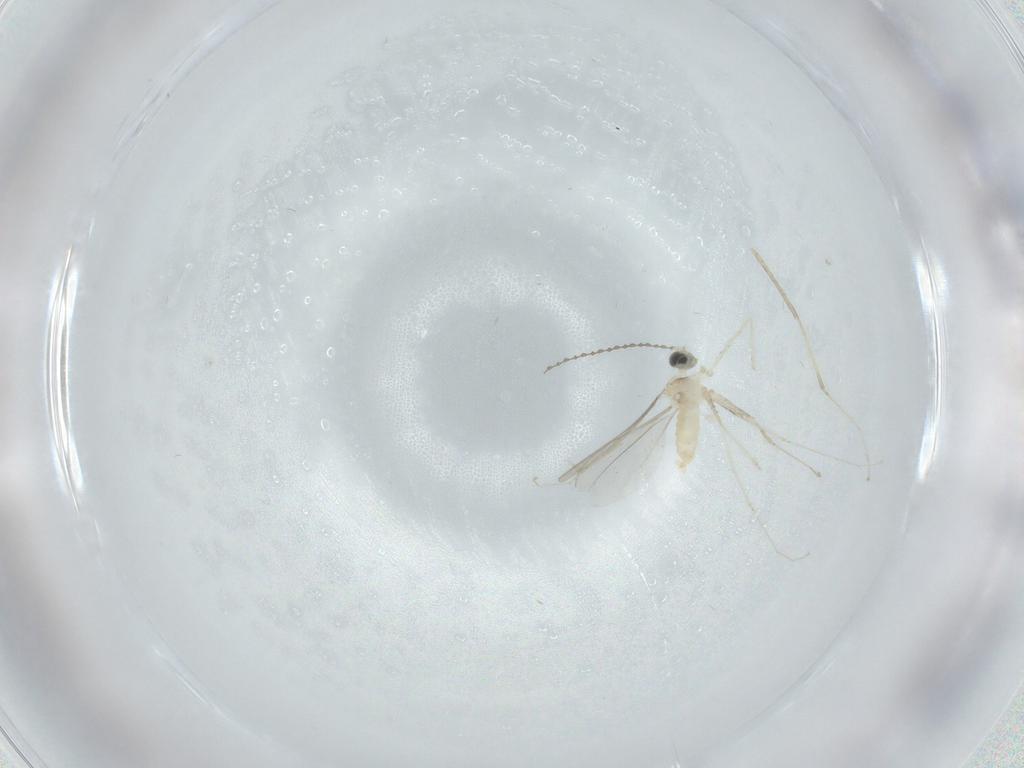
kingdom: Animalia
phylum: Arthropoda
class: Insecta
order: Diptera
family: Cecidomyiidae
